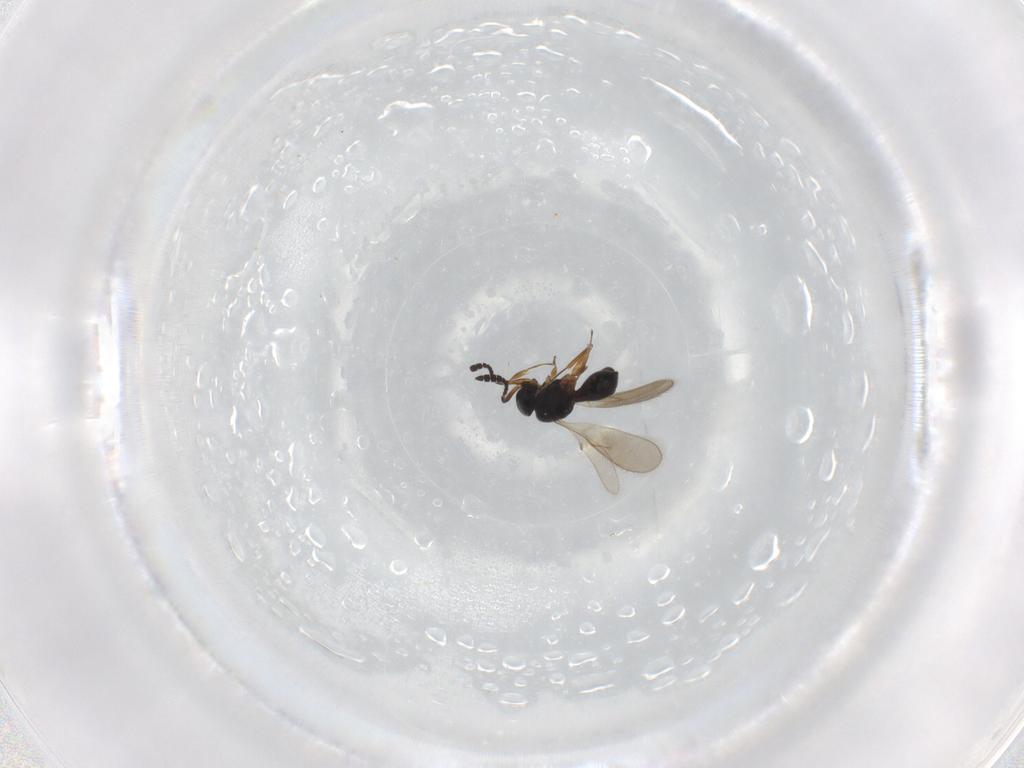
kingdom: Animalia
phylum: Arthropoda
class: Insecta
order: Hymenoptera
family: Scelionidae
